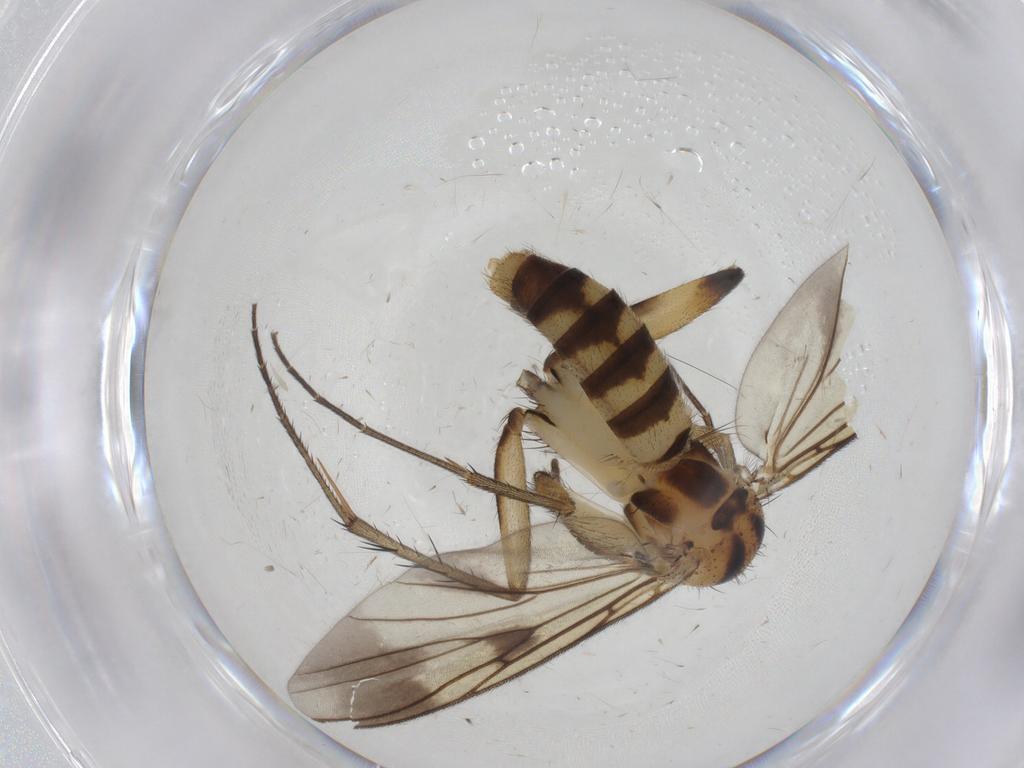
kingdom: Animalia
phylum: Arthropoda
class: Insecta
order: Diptera
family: Mycetophilidae
